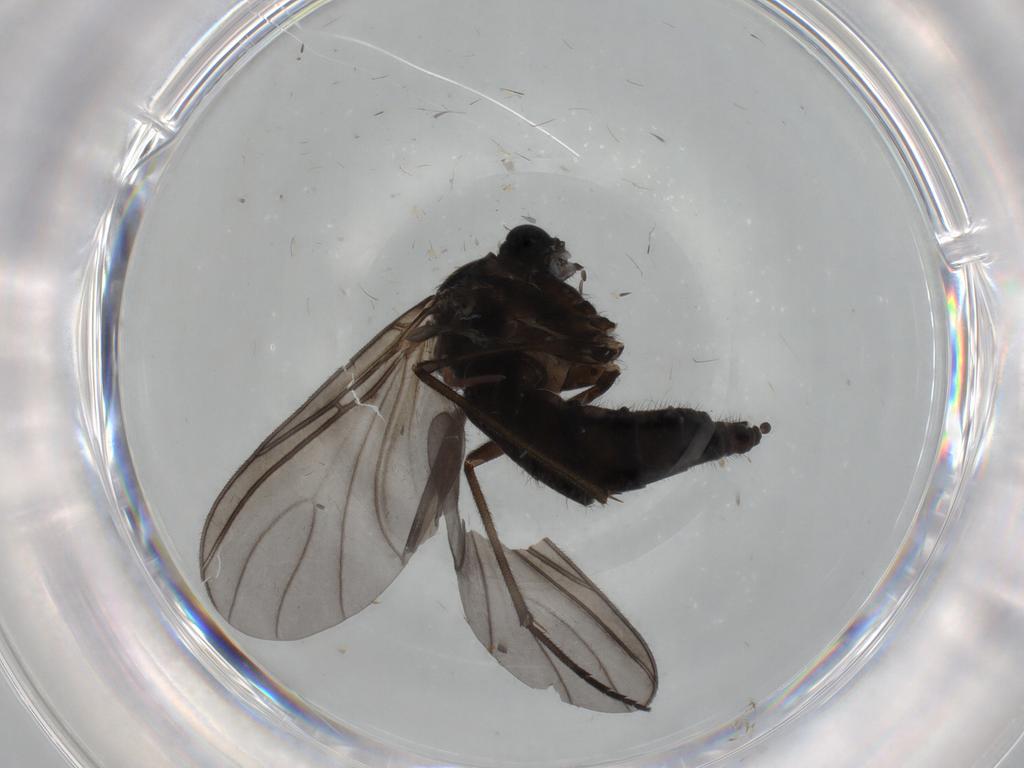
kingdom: Animalia
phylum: Arthropoda
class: Insecta
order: Diptera
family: Sciaridae
